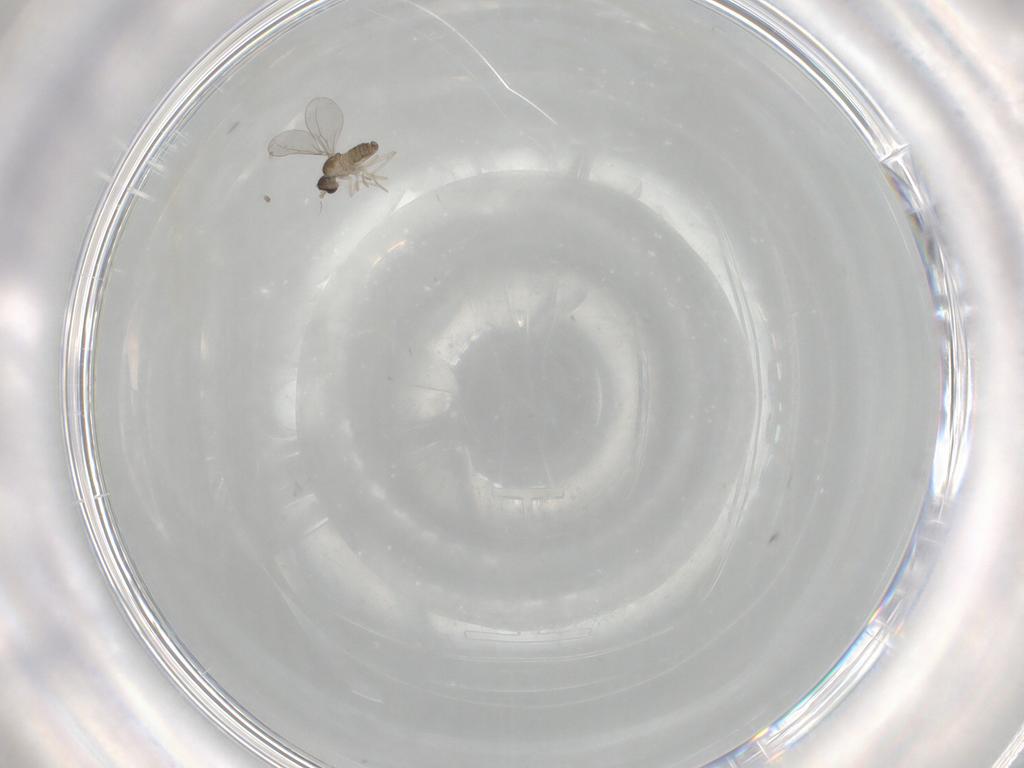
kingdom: Animalia
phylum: Arthropoda
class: Insecta
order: Diptera
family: Cecidomyiidae
